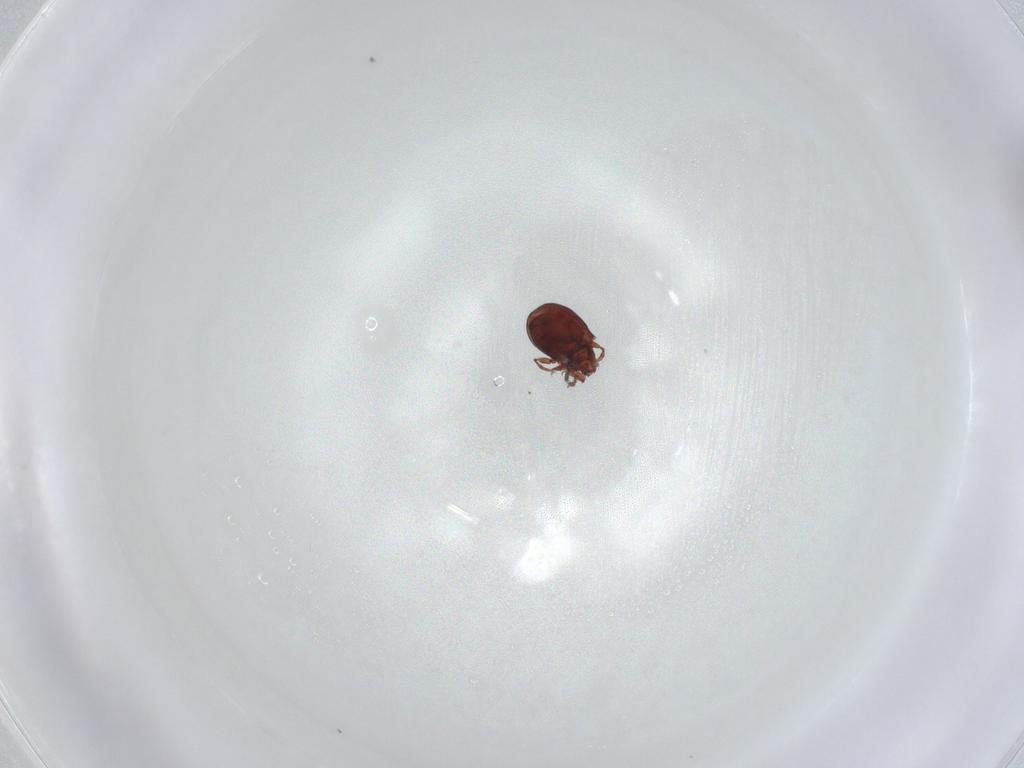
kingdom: Animalia
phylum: Arthropoda
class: Arachnida
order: Sarcoptiformes
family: Humerobatidae
